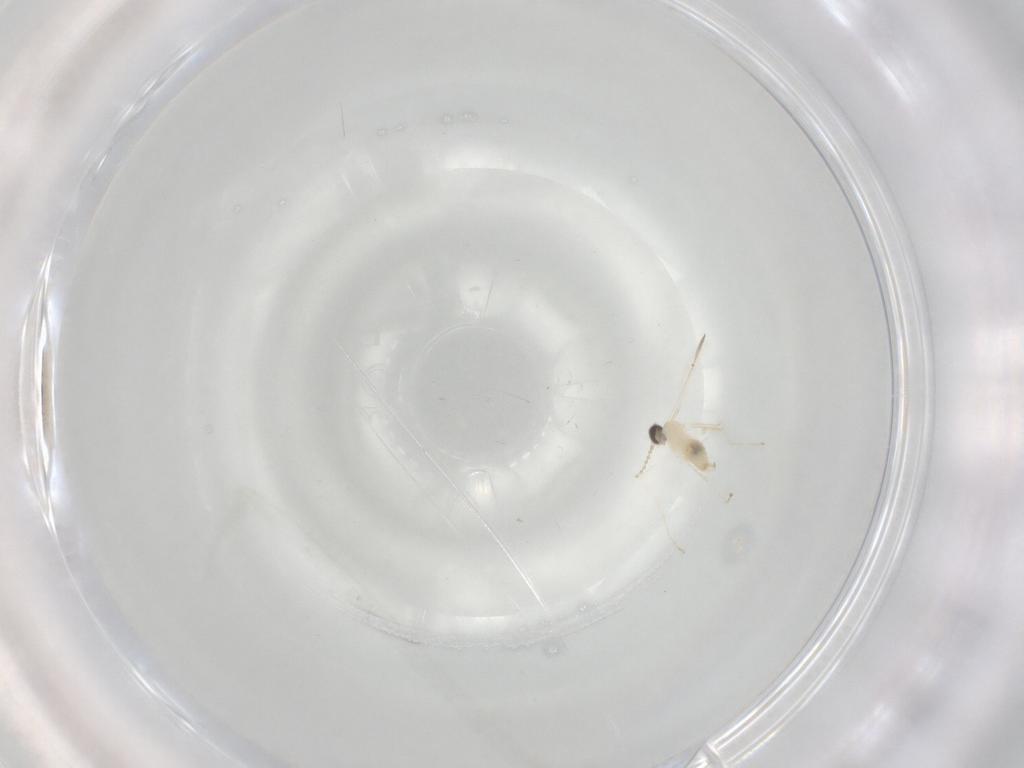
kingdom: Animalia
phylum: Arthropoda
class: Insecta
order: Diptera
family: Cecidomyiidae
